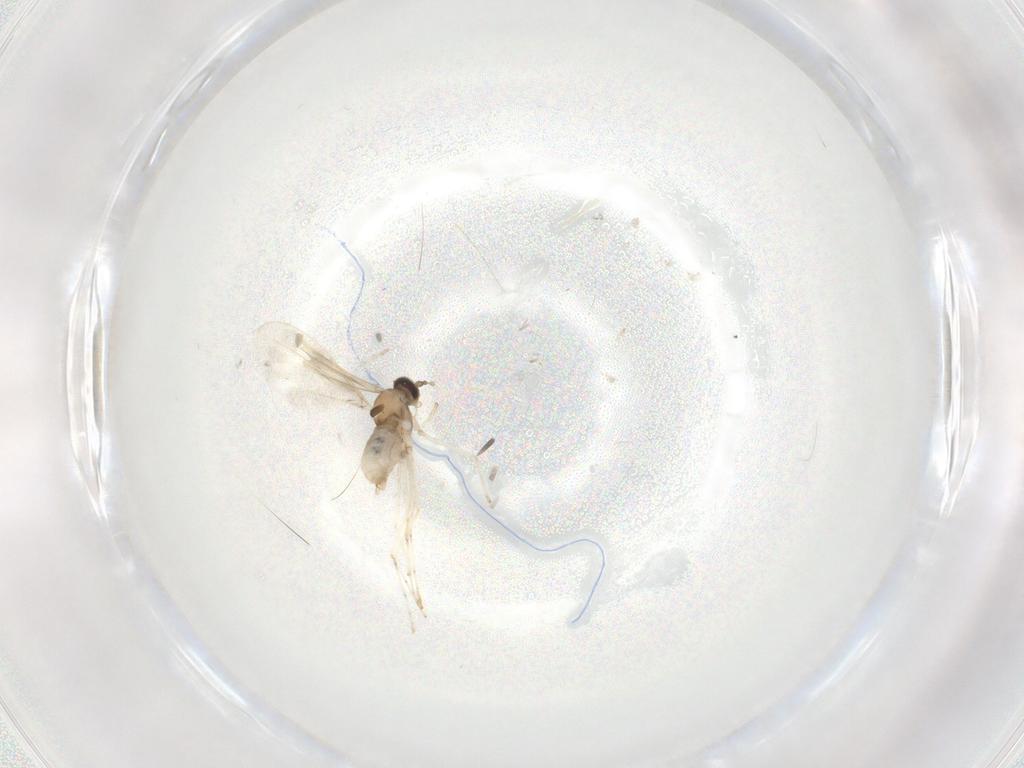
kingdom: Animalia
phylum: Arthropoda
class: Insecta
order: Diptera
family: Cecidomyiidae
